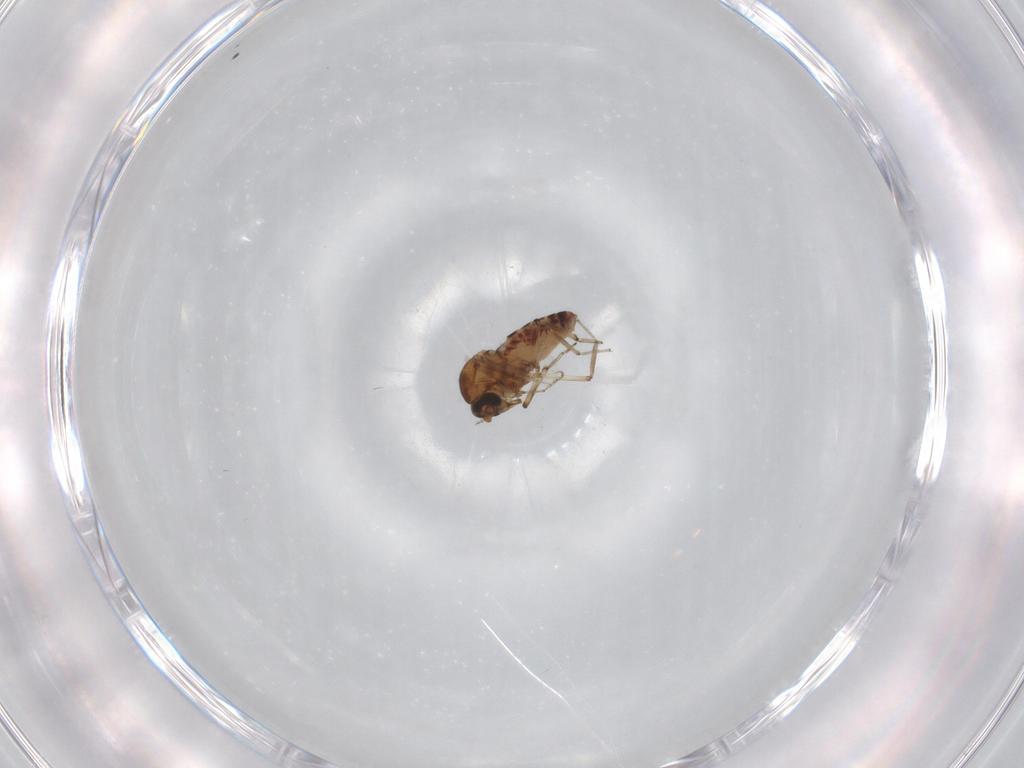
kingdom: Animalia
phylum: Arthropoda
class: Insecta
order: Diptera
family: Ceratopogonidae
